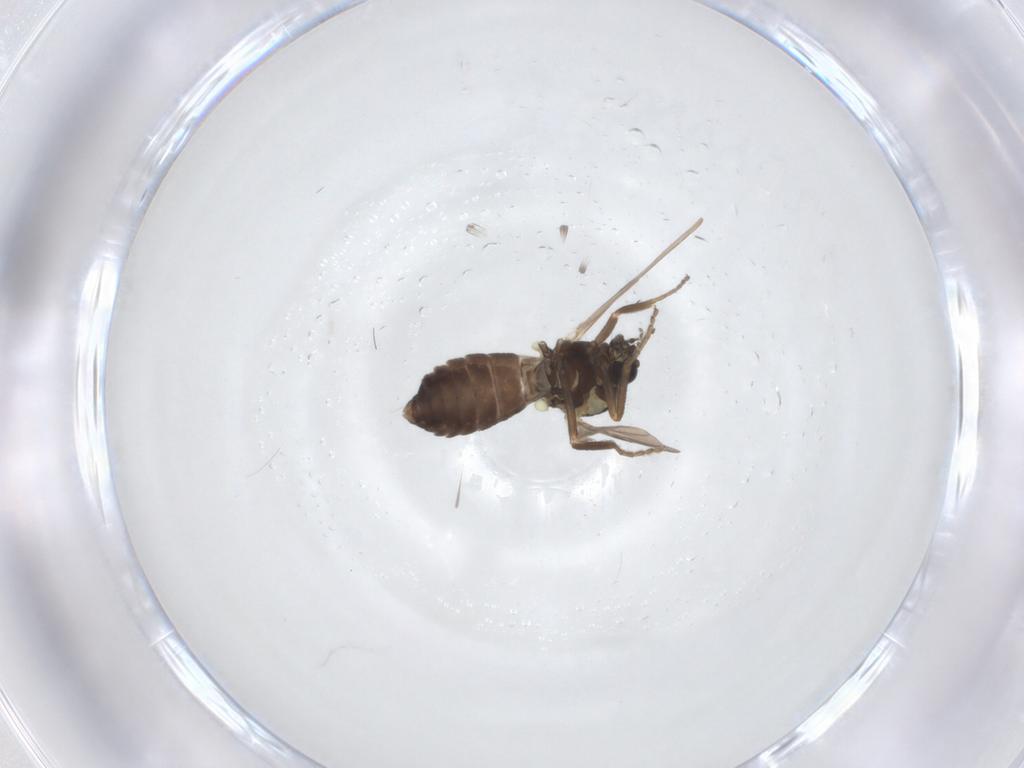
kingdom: Animalia
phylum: Arthropoda
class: Insecta
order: Diptera
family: Ceratopogonidae
